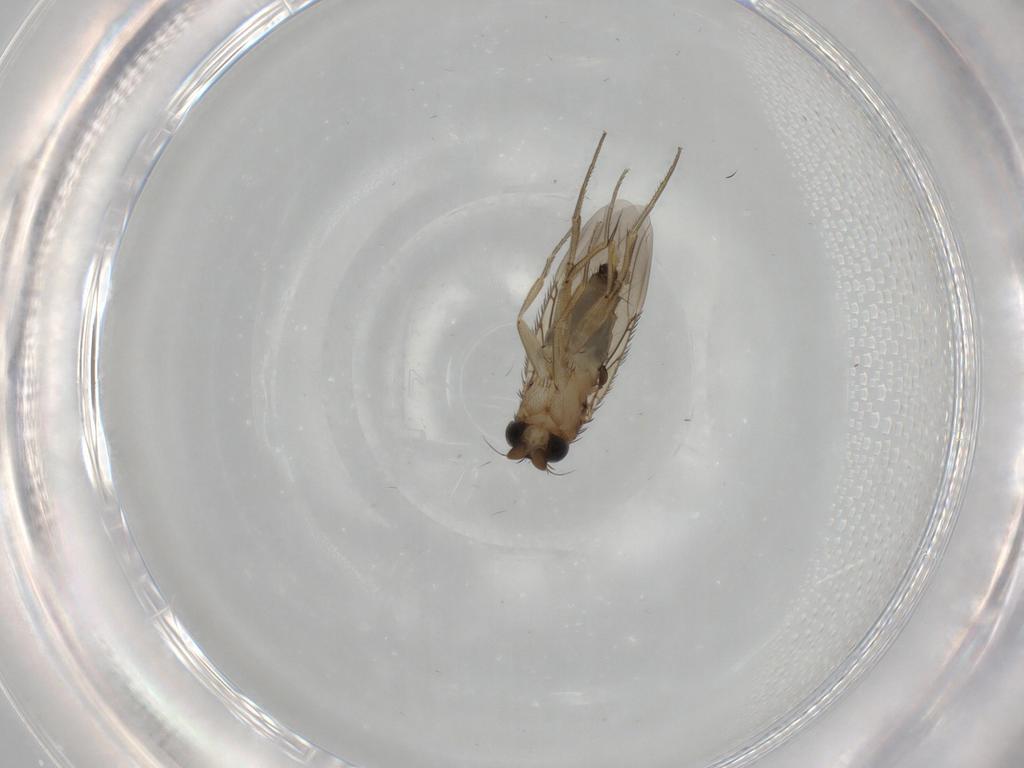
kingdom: Animalia
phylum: Arthropoda
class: Insecta
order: Diptera
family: Phoridae
